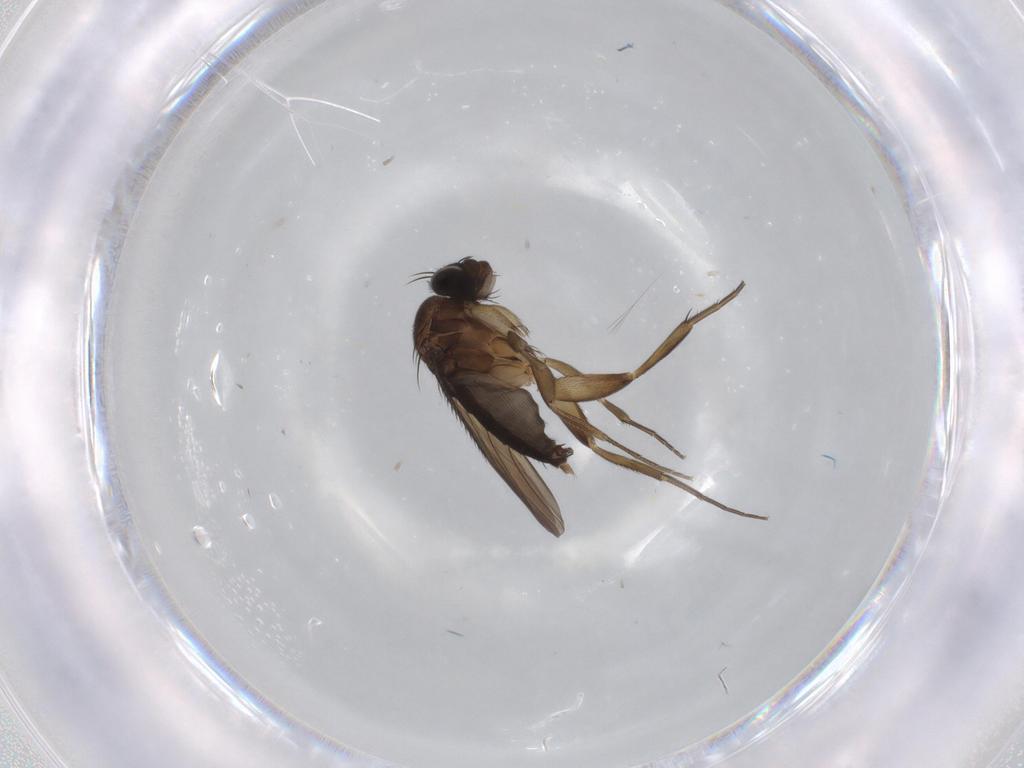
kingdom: Animalia
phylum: Arthropoda
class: Insecta
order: Diptera
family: Phoridae
